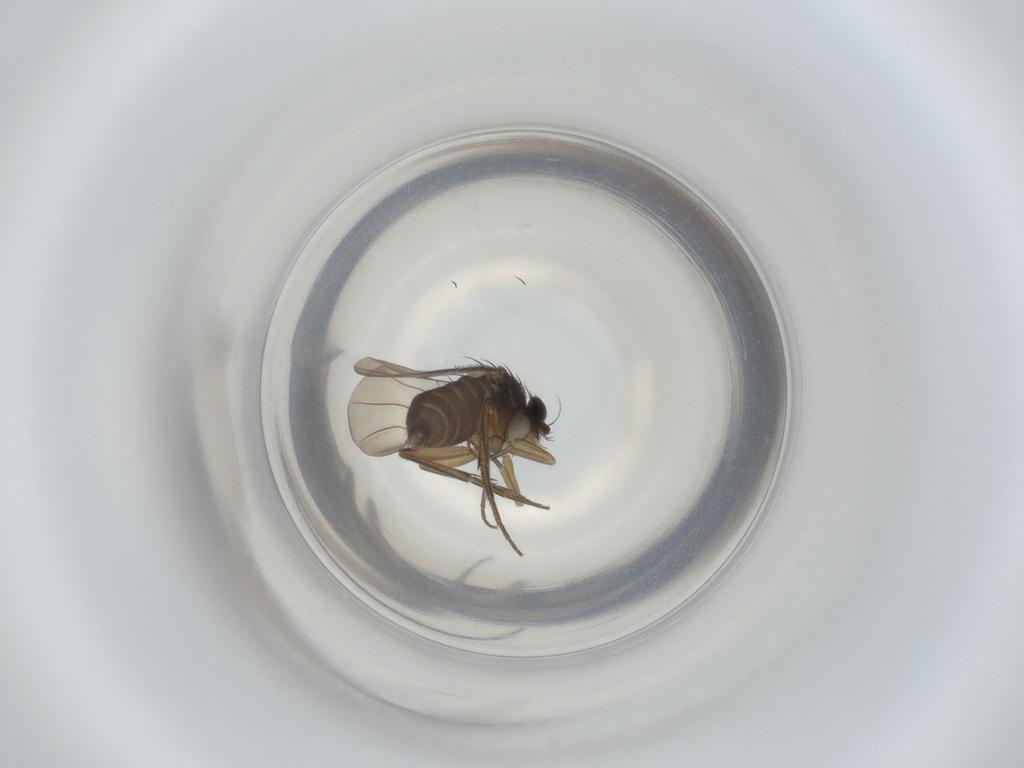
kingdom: Animalia
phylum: Arthropoda
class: Insecta
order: Diptera
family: Phoridae
